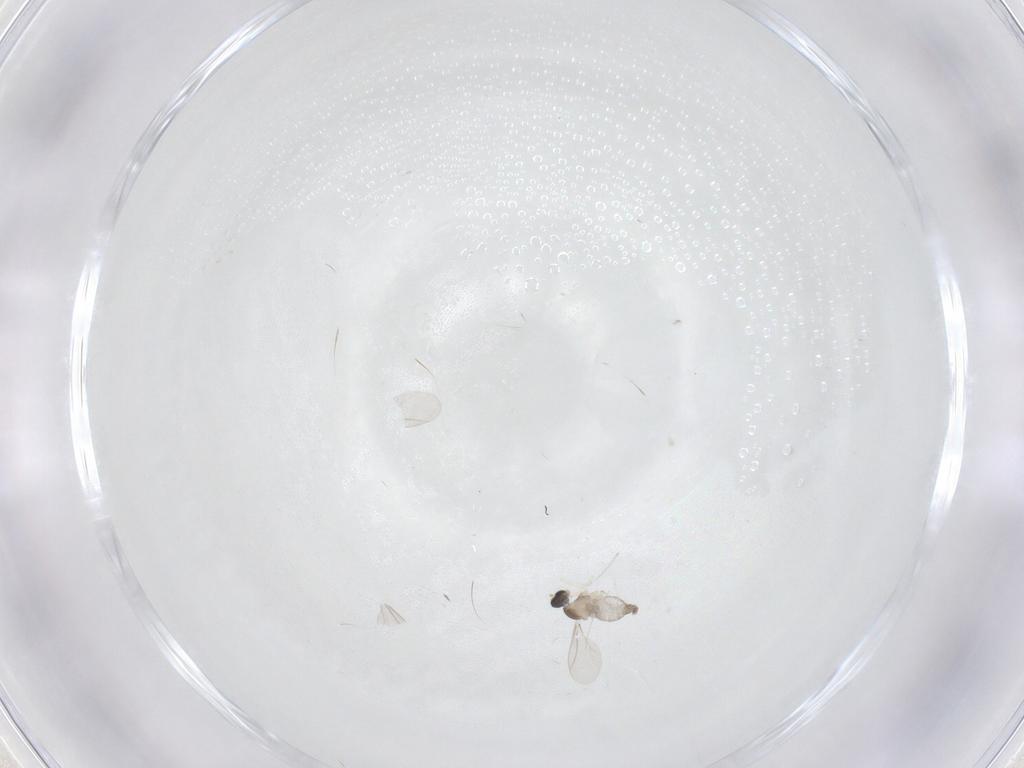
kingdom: Animalia
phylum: Arthropoda
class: Insecta
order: Diptera
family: Cecidomyiidae
